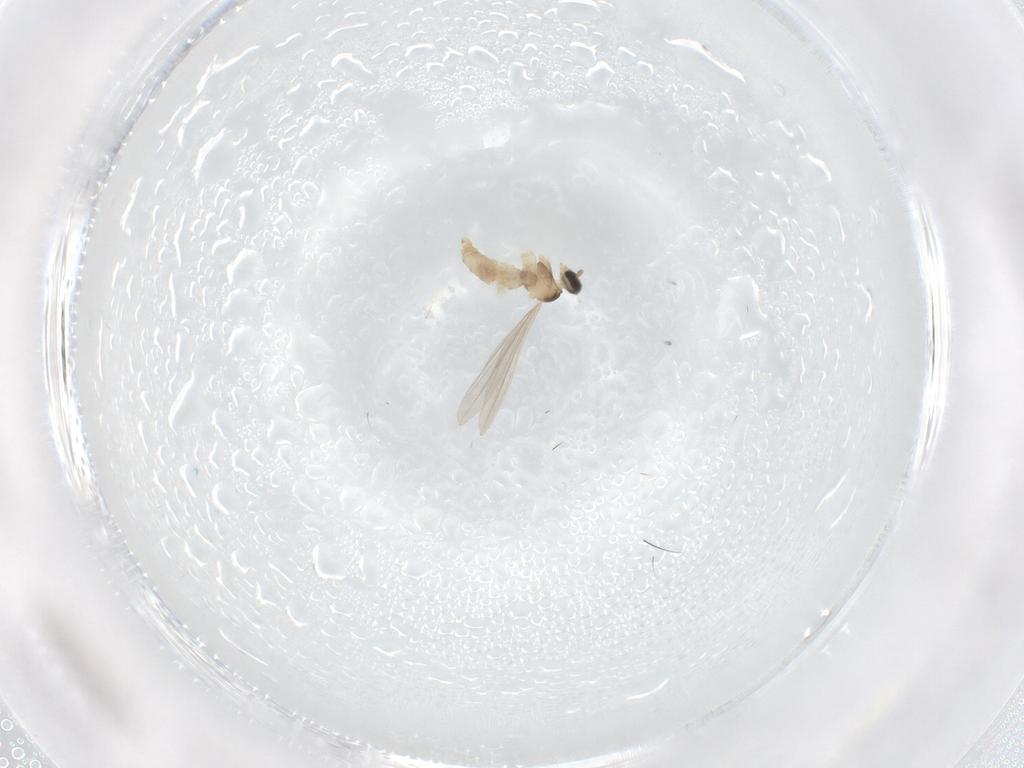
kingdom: Animalia
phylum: Arthropoda
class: Insecta
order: Diptera
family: Cecidomyiidae
